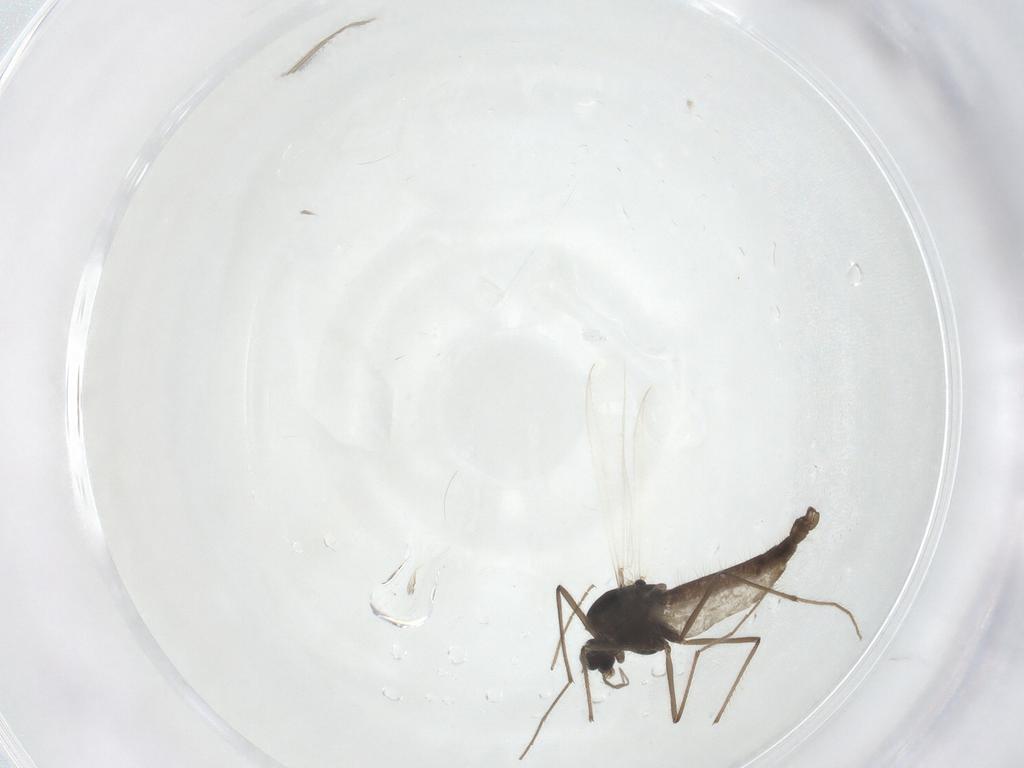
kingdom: Animalia
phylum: Arthropoda
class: Insecta
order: Diptera
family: Chironomidae
